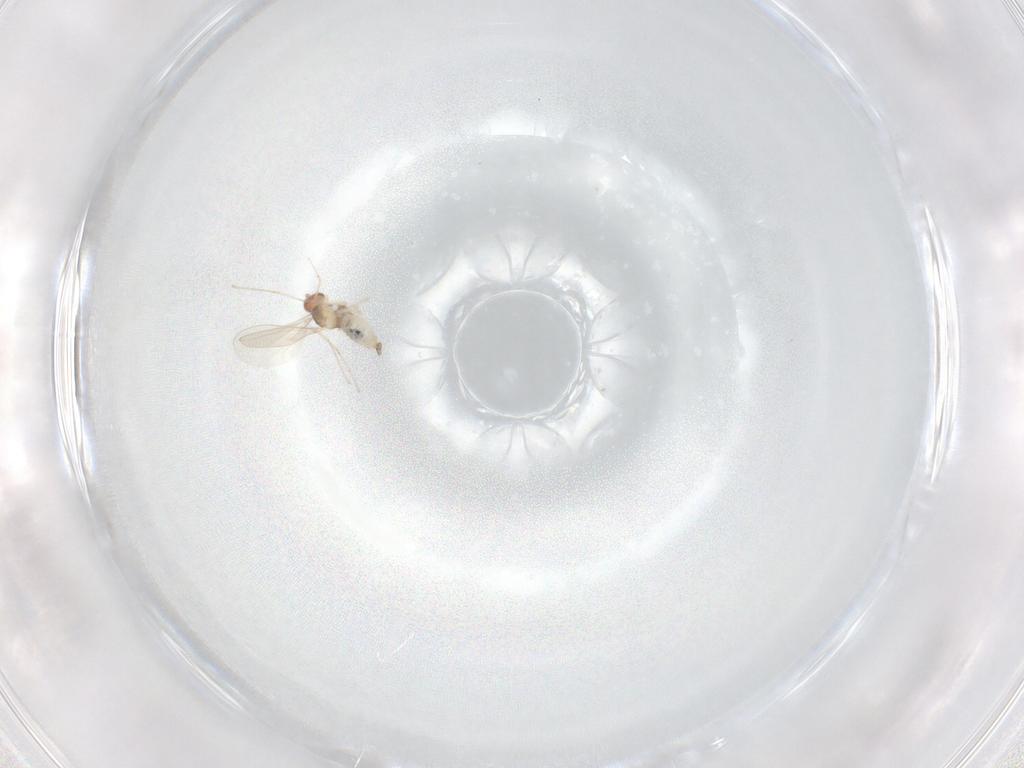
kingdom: Animalia
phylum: Arthropoda
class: Insecta
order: Diptera
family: Cecidomyiidae
